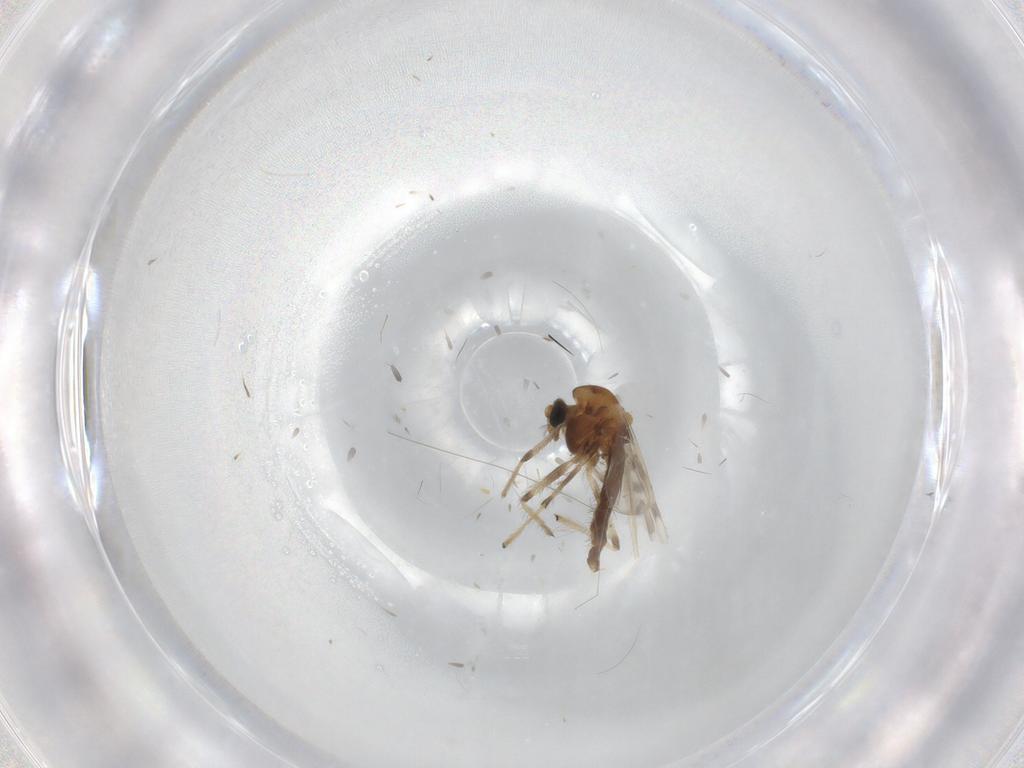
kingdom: Animalia
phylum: Arthropoda
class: Insecta
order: Diptera
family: Chironomidae
